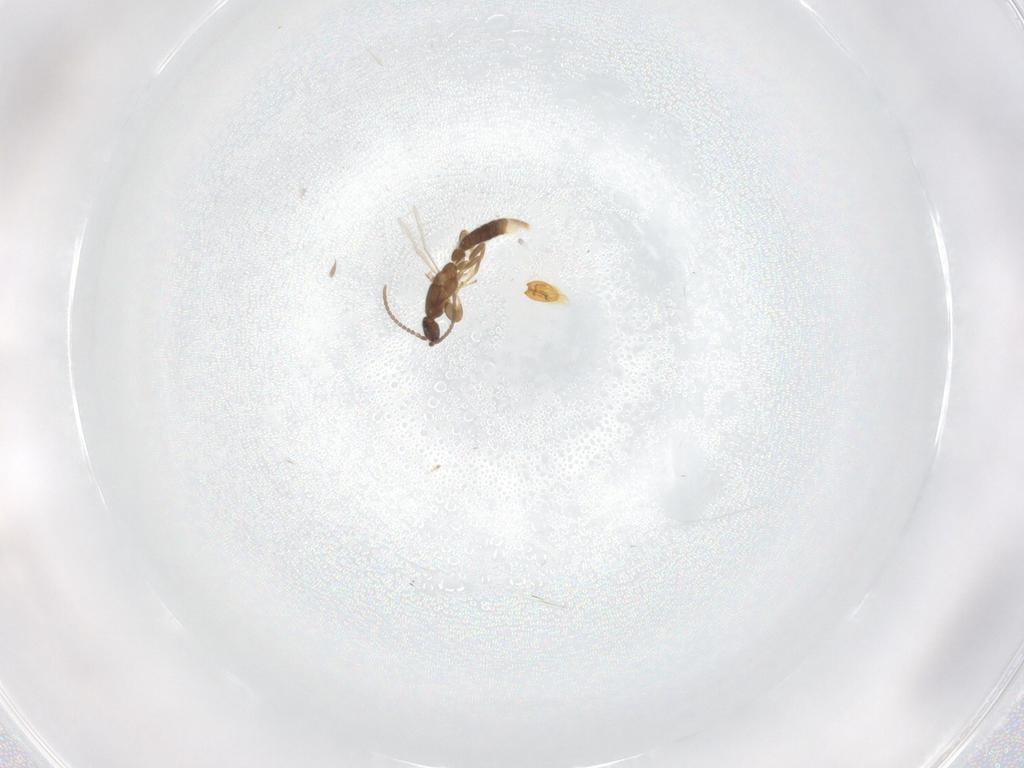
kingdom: Animalia
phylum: Arthropoda
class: Insecta
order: Hymenoptera
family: Formicidae
